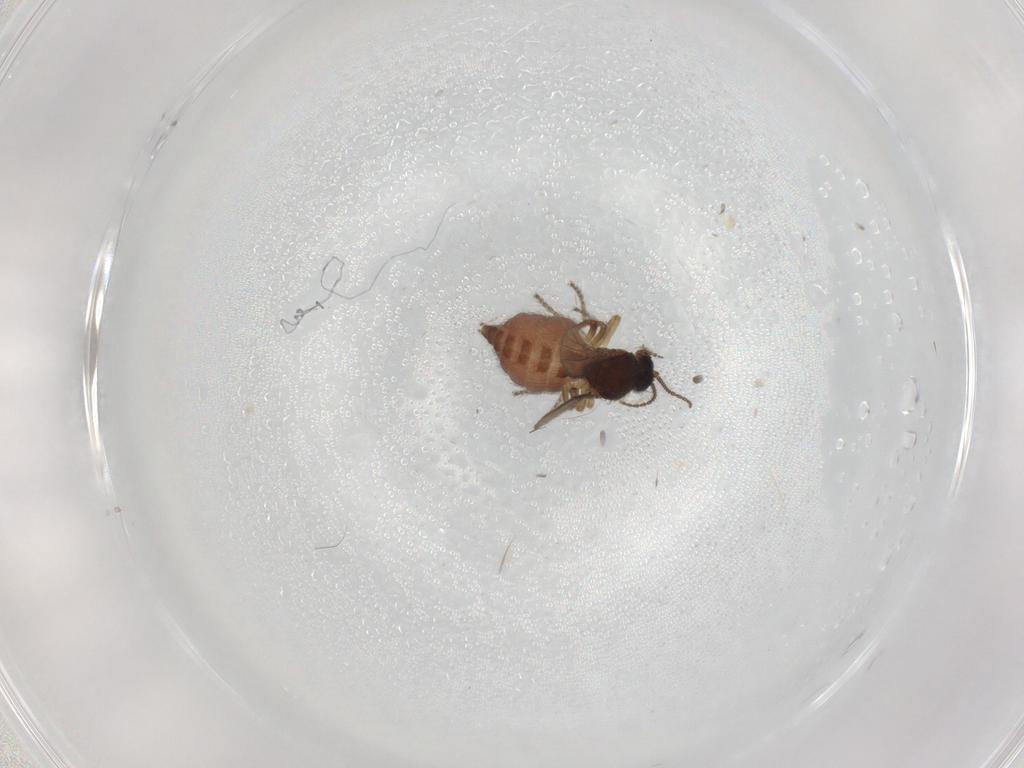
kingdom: Animalia
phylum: Arthropoda
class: Insecta
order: Diptera
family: Ceratopogonidae
